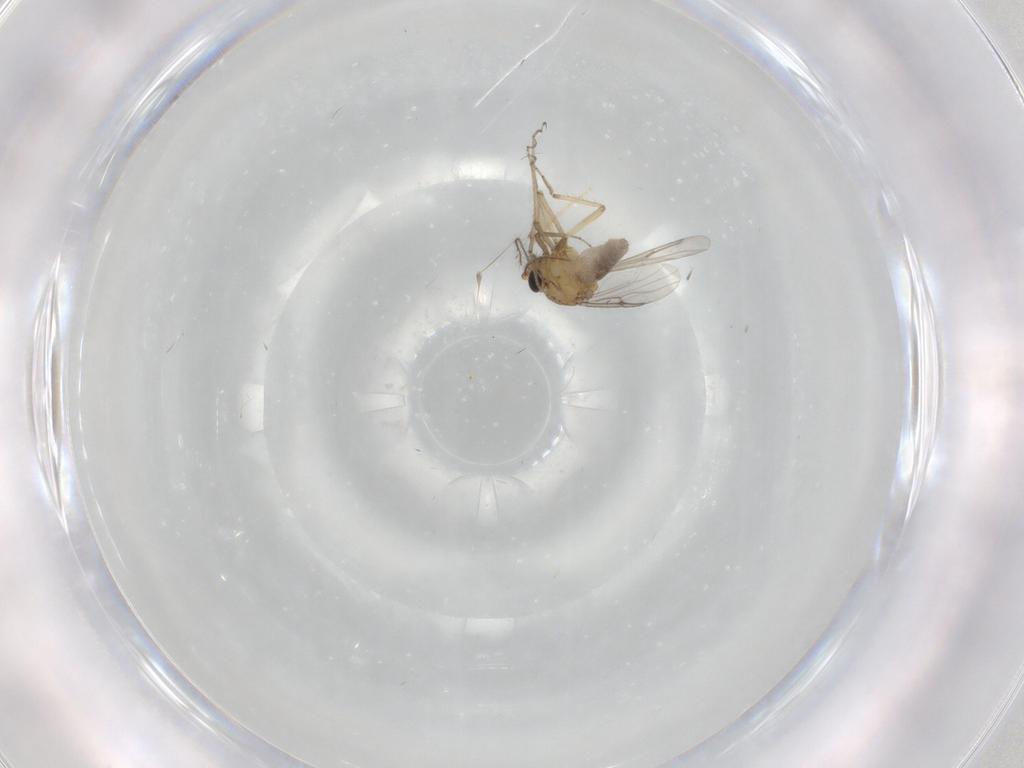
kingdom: Animalia
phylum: Arthropoda
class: Insecta
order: Diptera
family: Chironomidae
